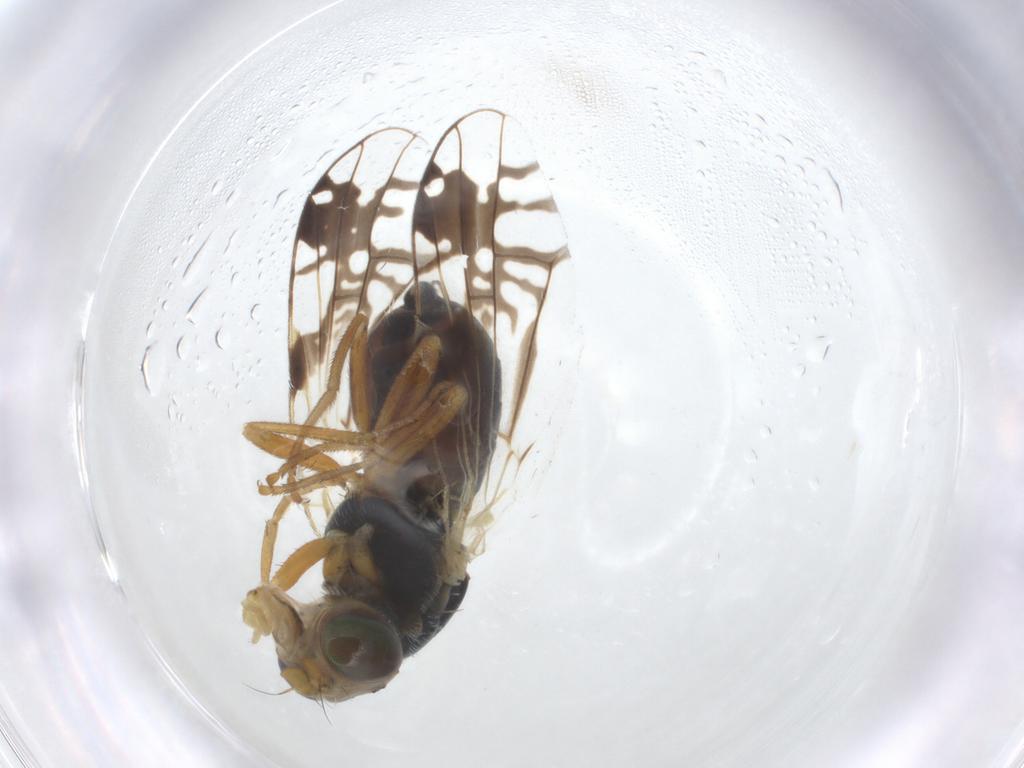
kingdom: Animalia
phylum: Arthropoda
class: Insecta
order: Diptera
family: Tephritidae
